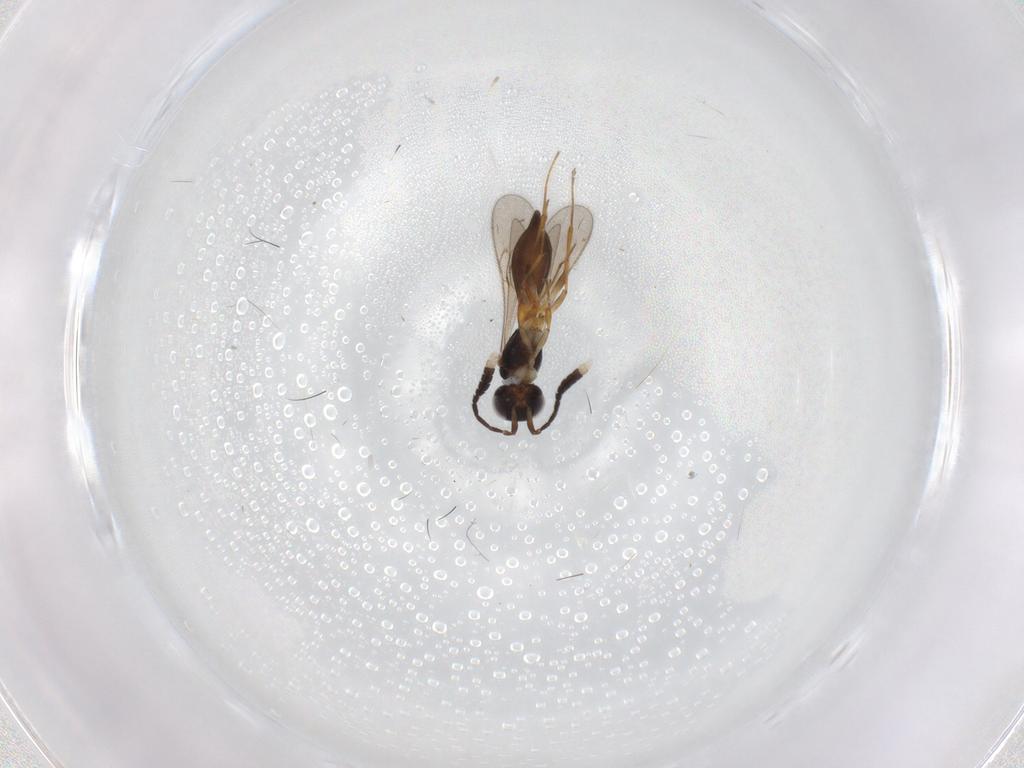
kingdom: Animalia
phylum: Arthropoda
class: Insecta
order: Hymenoptera
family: Scelionidae
